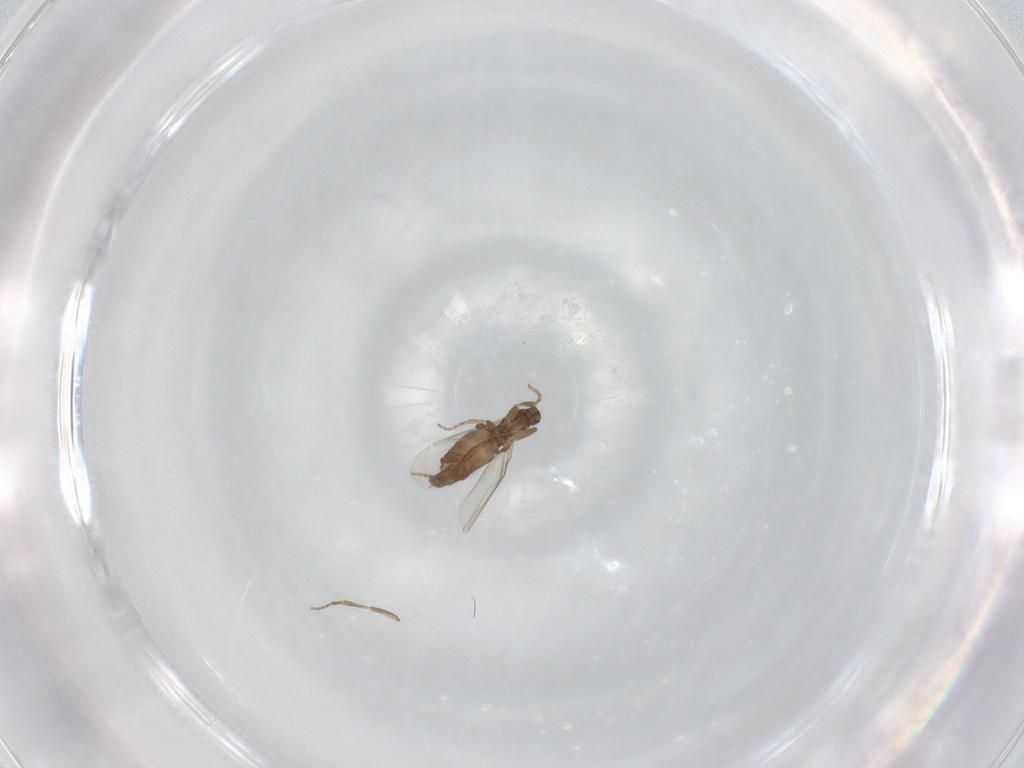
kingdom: Animalia
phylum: Arthropoda
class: Insecta
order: Diptera
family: Phoridae
